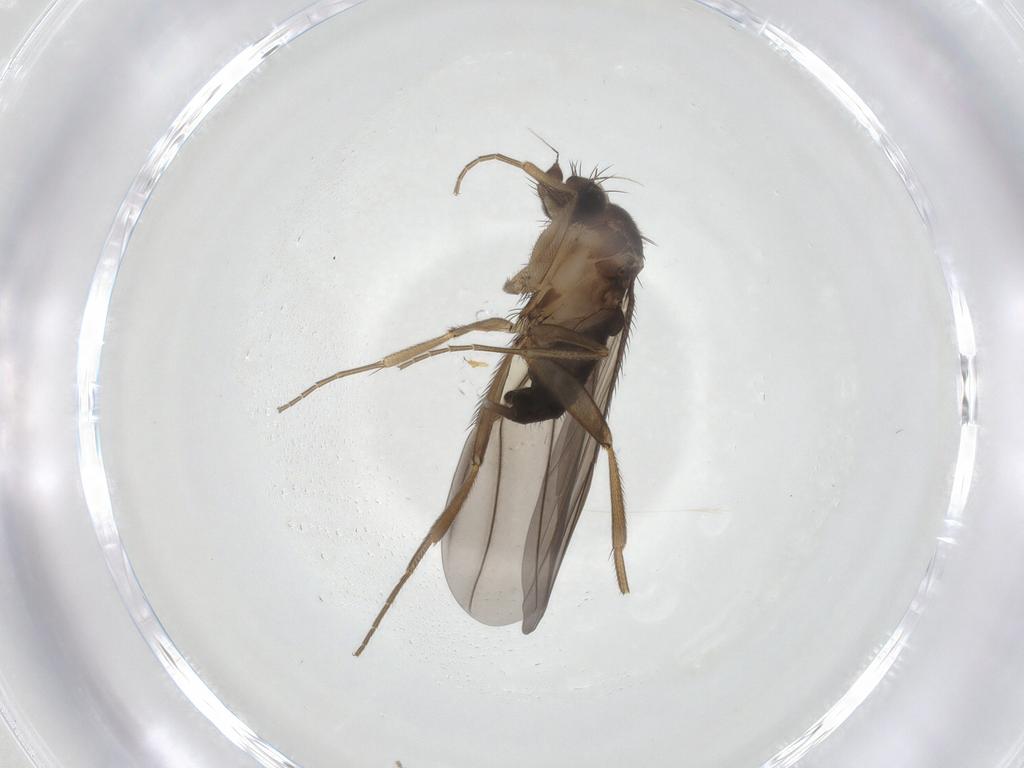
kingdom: Animalia
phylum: Arthropoda
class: Insecta
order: Diptera
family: Phoridae
